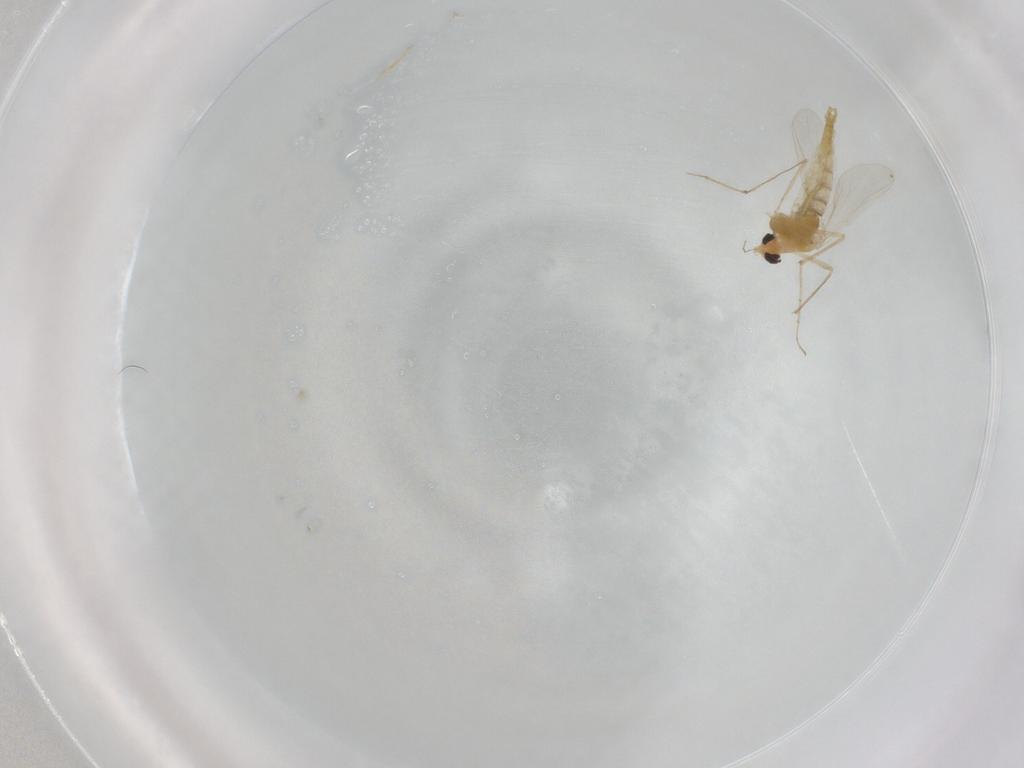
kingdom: Animalia
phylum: Arthropoda
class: Insecta
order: Diptera
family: Chironomidae
